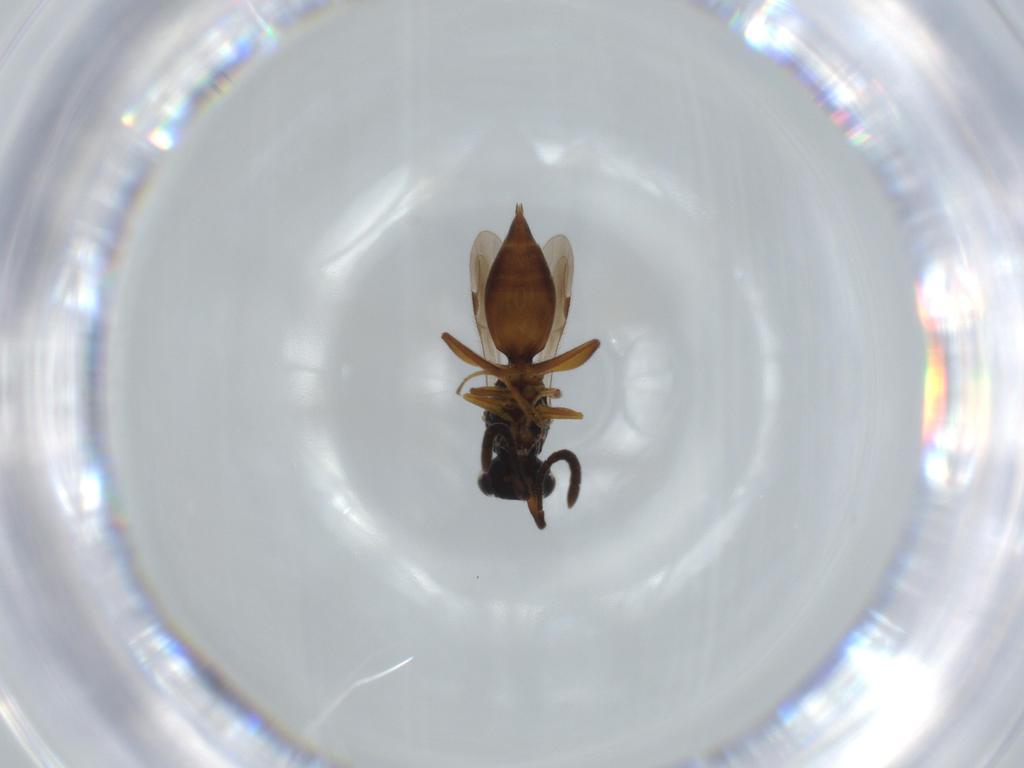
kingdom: Animalia
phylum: Arthropoda
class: Insecta
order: Hymenoptera
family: Megaspilidae
